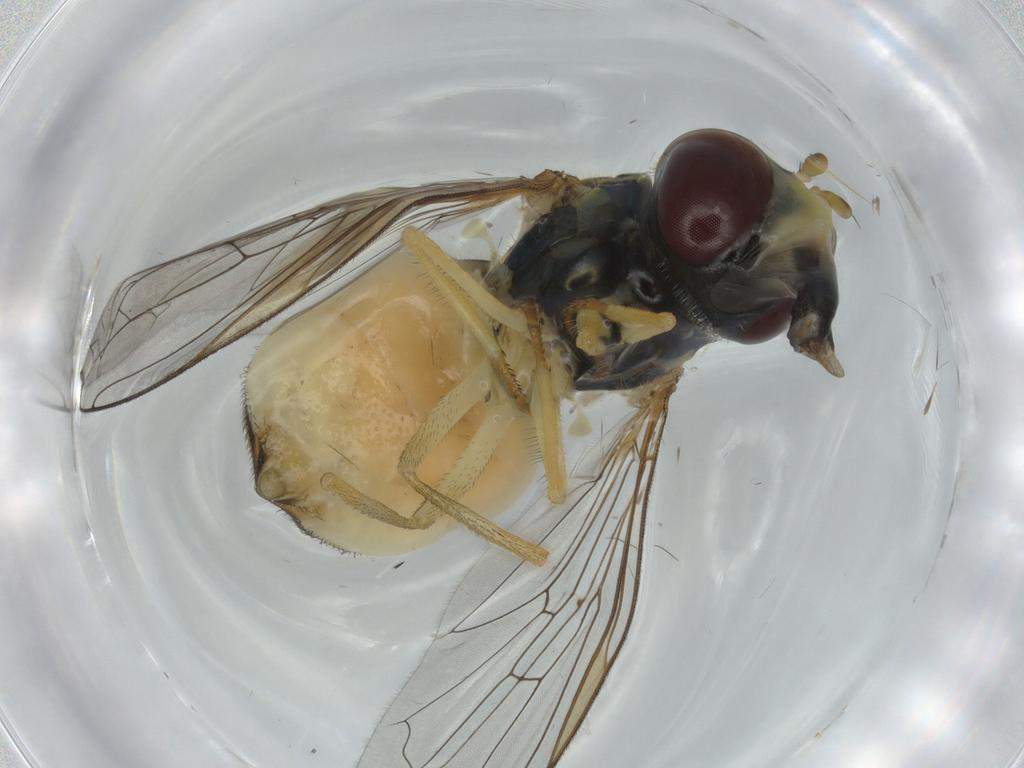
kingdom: Animalia
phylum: Arthropoda
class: Insecta
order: Diptera
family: Syrphidae
